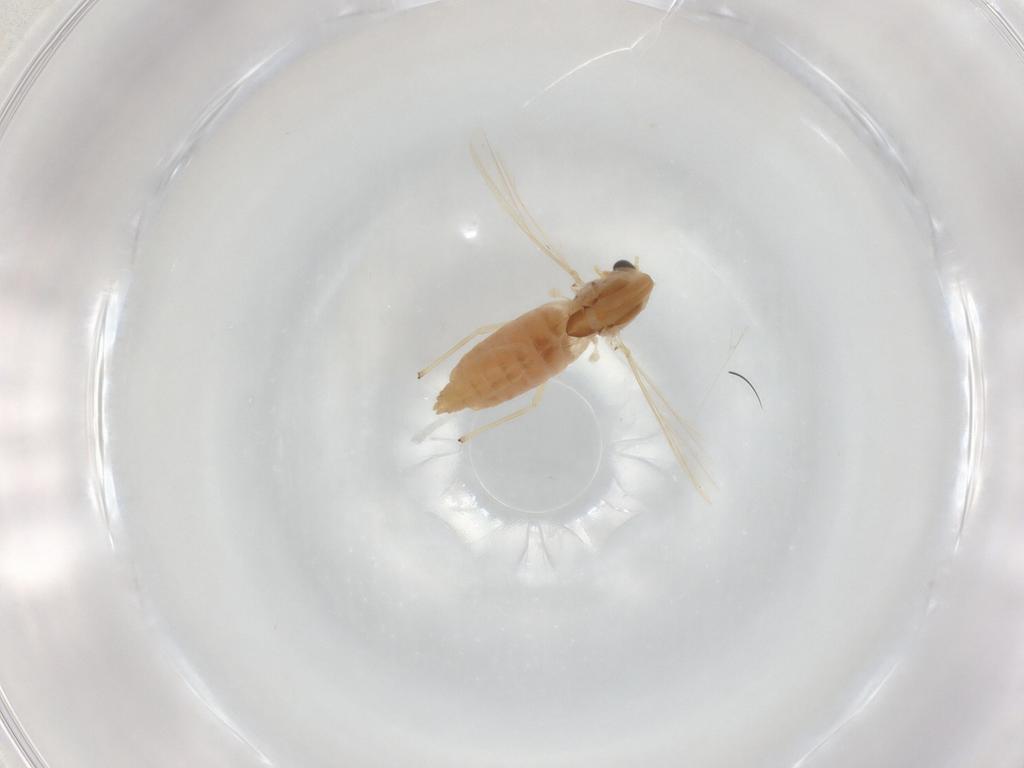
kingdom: Animalia
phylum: Arthropoda
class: Insecta
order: Diptera
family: Chironomidae
